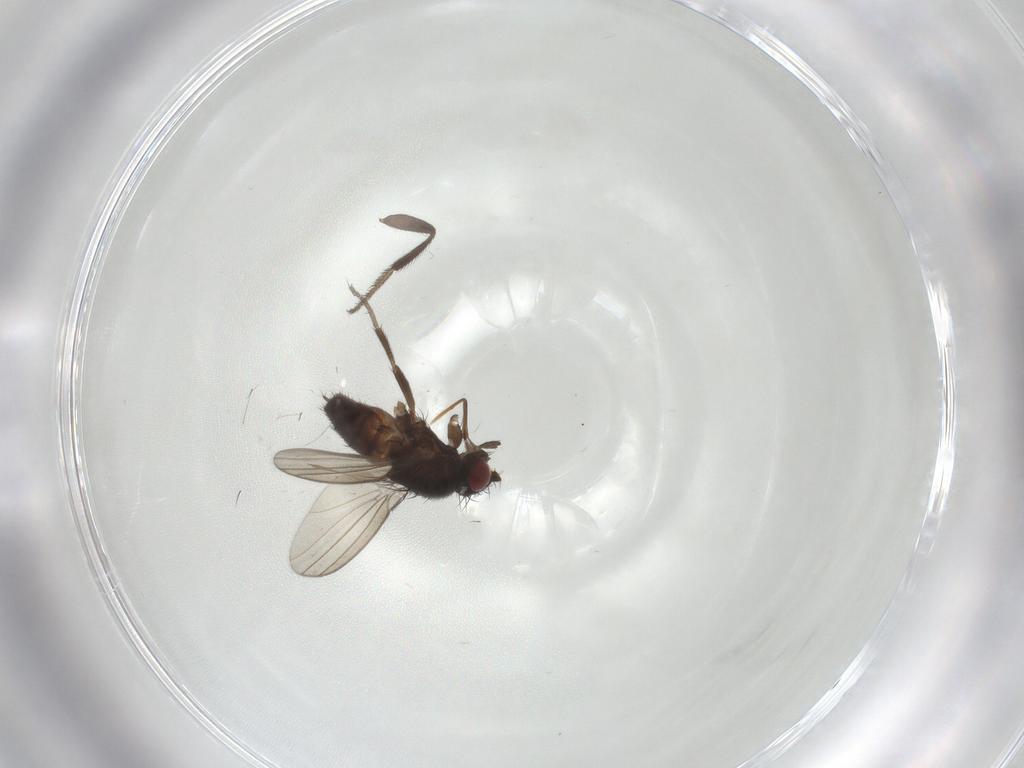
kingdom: Animalia
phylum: Arthropoda
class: Insecta
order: Diptera
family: Milichiidae
